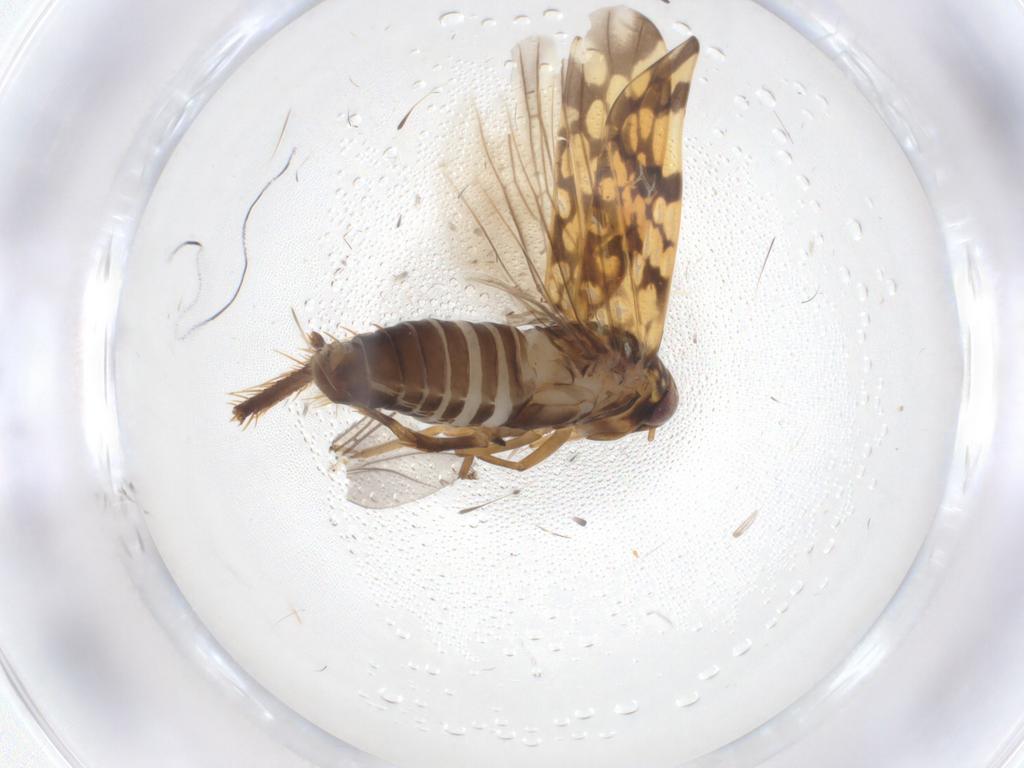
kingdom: Animalia
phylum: Arthropoda
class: Insecta
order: Hemiptera
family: Cicadellidae
